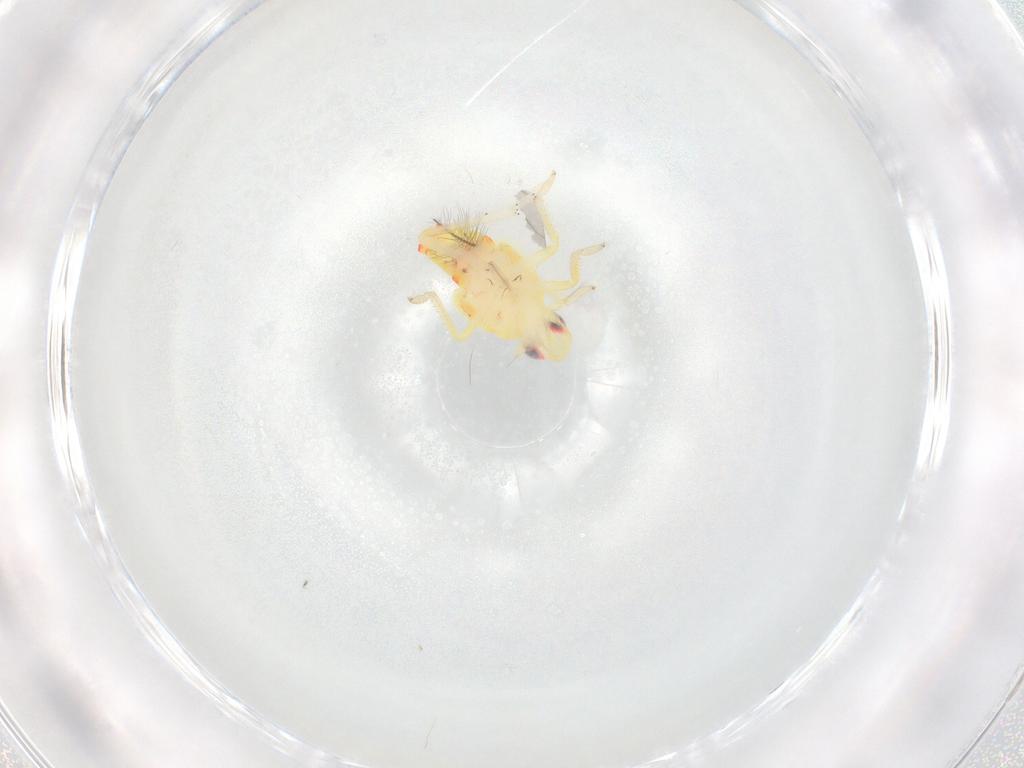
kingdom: Animalia
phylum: Arthropoda
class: Insecta
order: Hemiptera
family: Tropiduchidae
